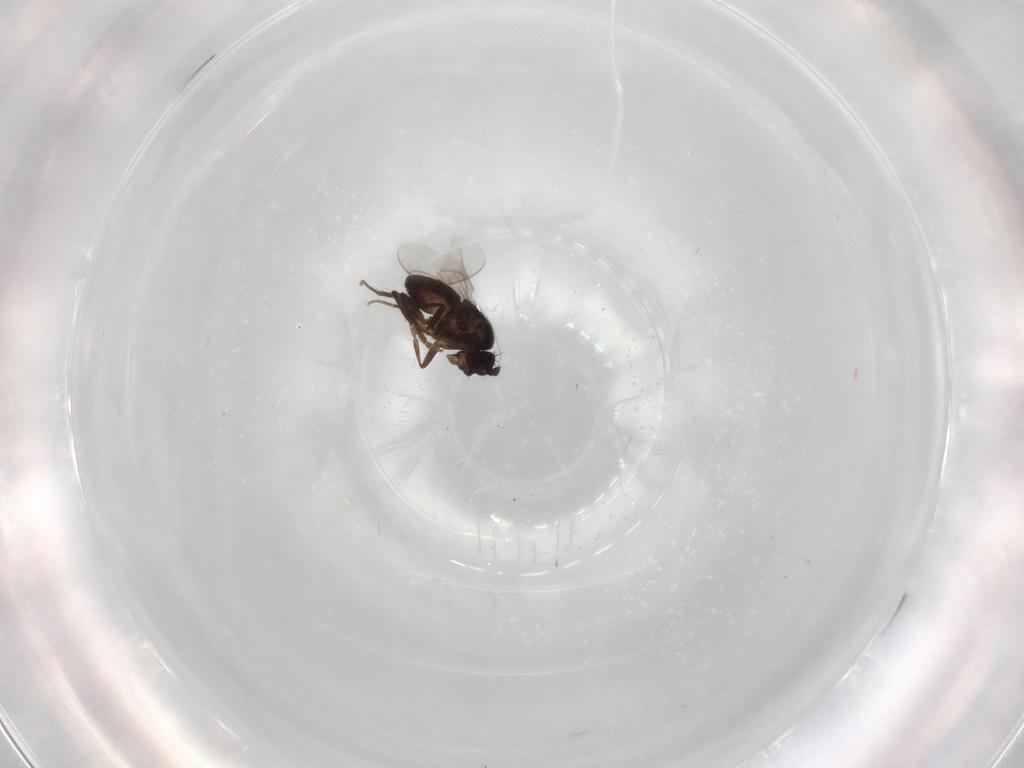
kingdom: Animalia
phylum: Arthropoda
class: Insecta
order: Diptera
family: Cecidomyiidae
